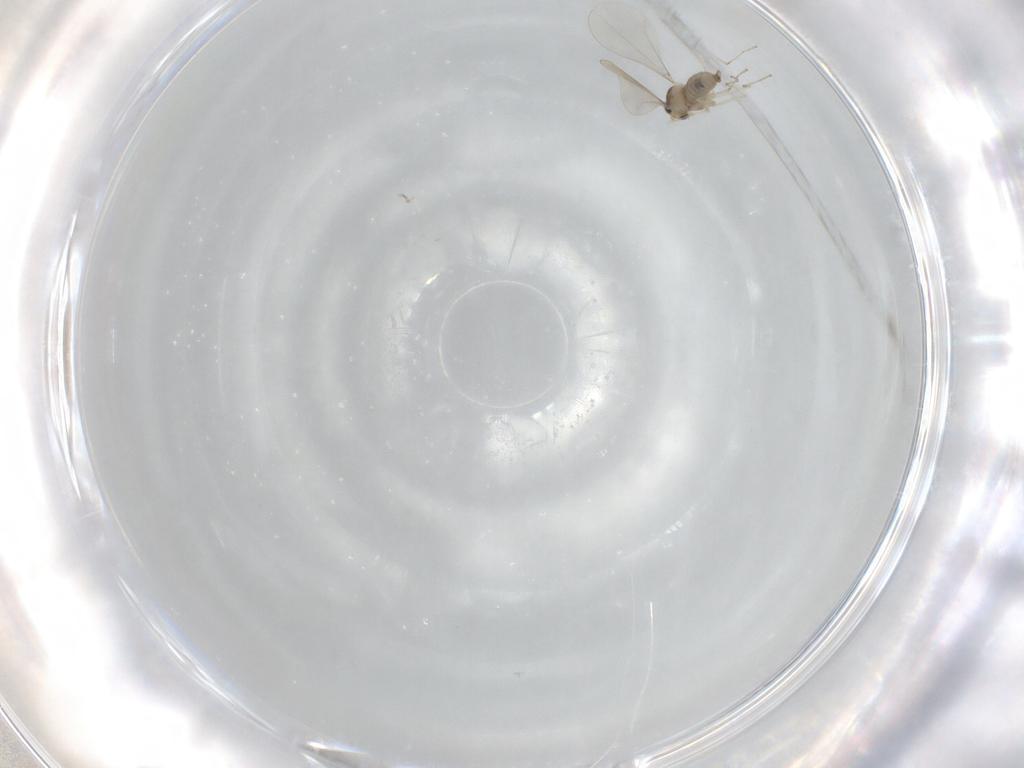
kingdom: Animalia
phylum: Arthropoda
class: Insecta
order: Diptera
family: Cecidomyiidae
